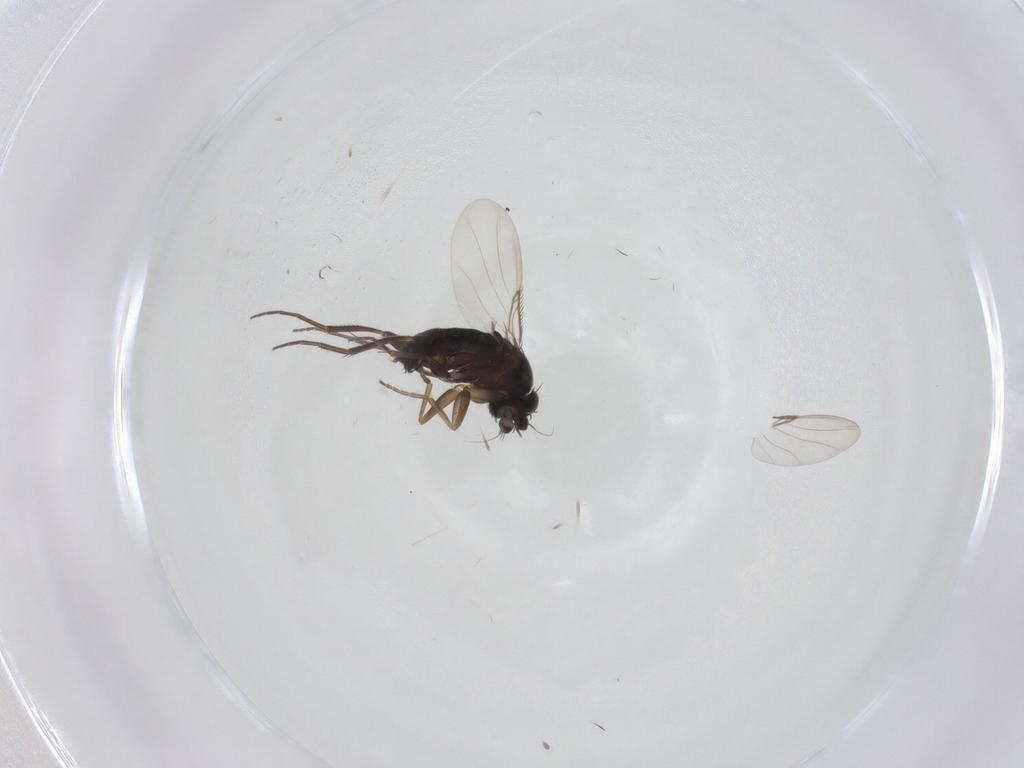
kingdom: Animalia
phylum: Arthropoda
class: Insecta
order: Diptera
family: Phoridae
